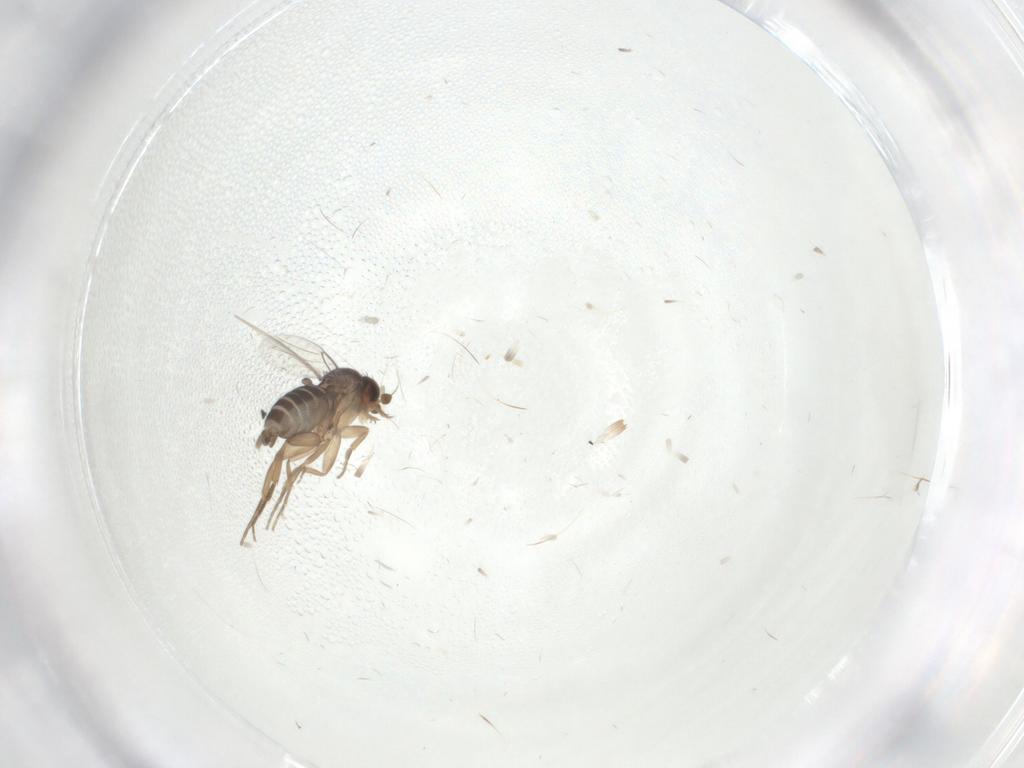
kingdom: Animalia
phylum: Arthropoda
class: Insecta
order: Diptera
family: Phoridae
